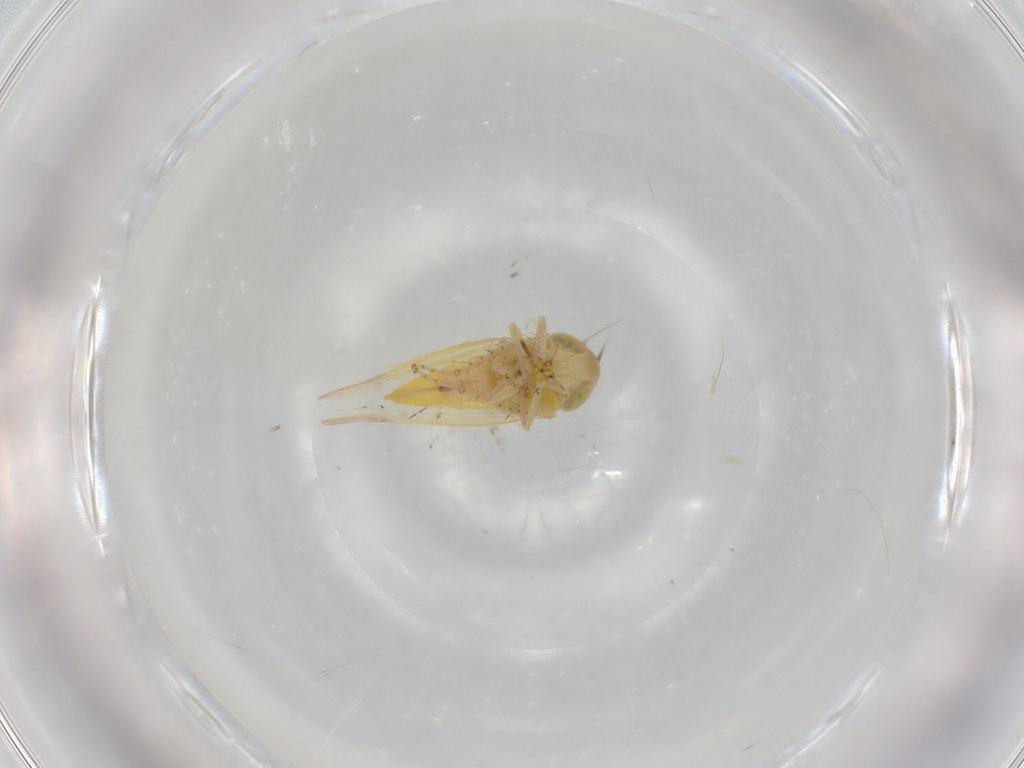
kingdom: Animalia
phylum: Arthropoda
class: Insecta
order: Hemiptera
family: Cicadellidae
